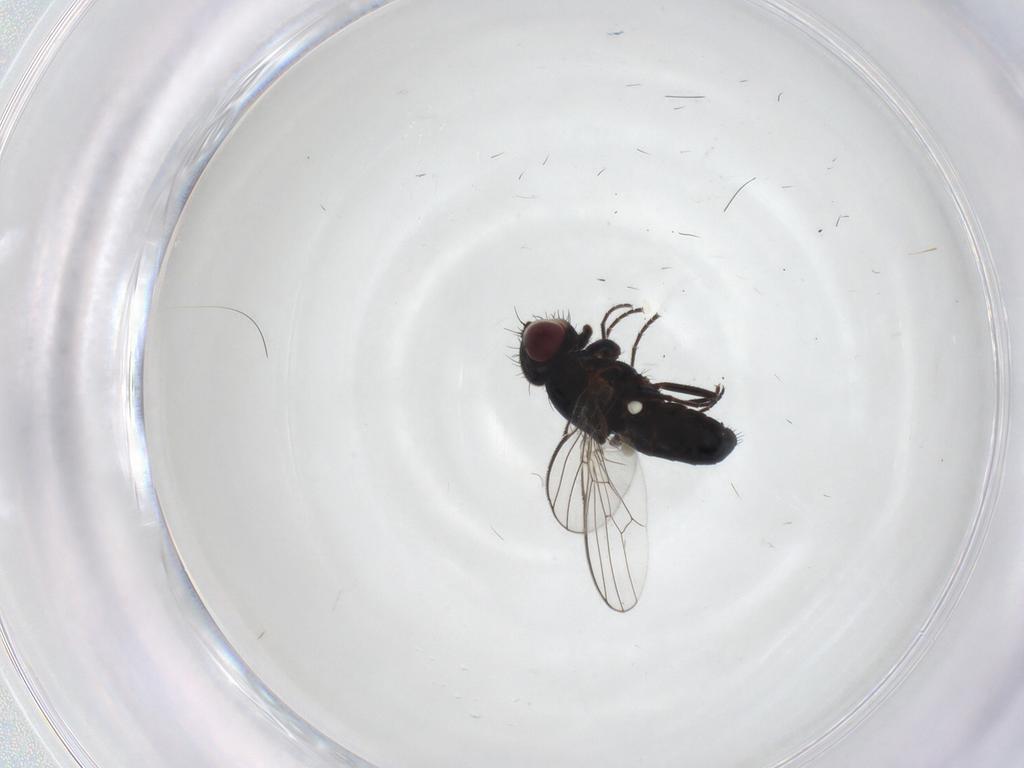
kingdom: Animalia
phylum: Arthropoda
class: Insecta
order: Diptera
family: Carnidae
